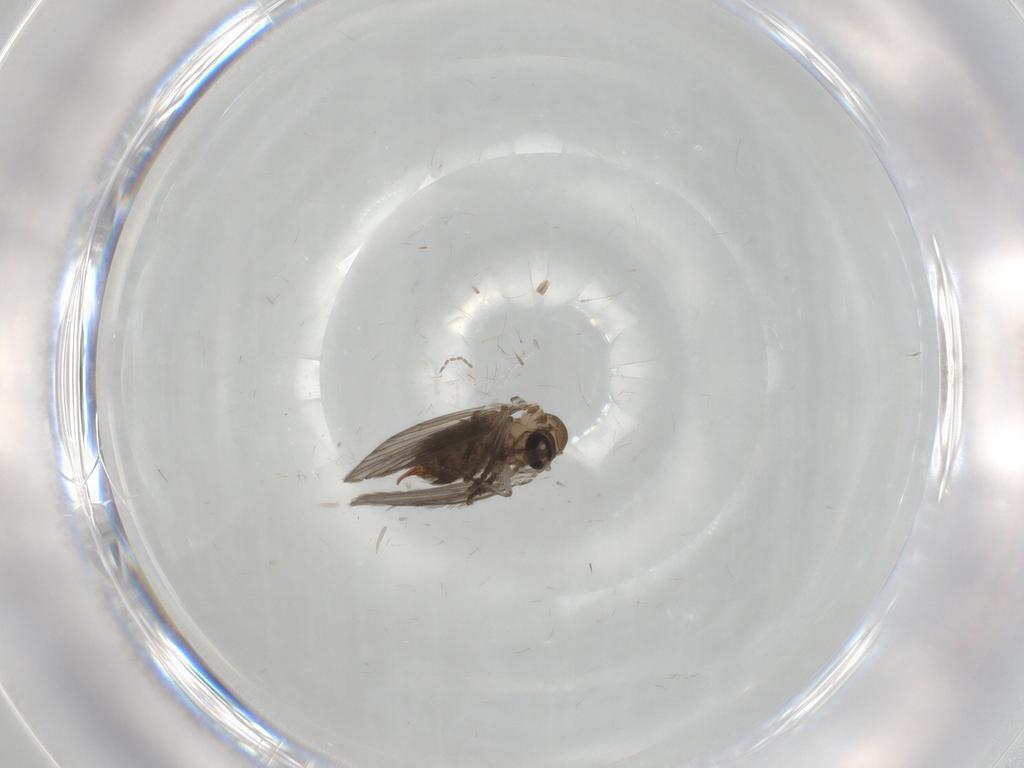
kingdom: Animalia
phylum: Arthropoda
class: Insecta
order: Diptera
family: Psychodidae
